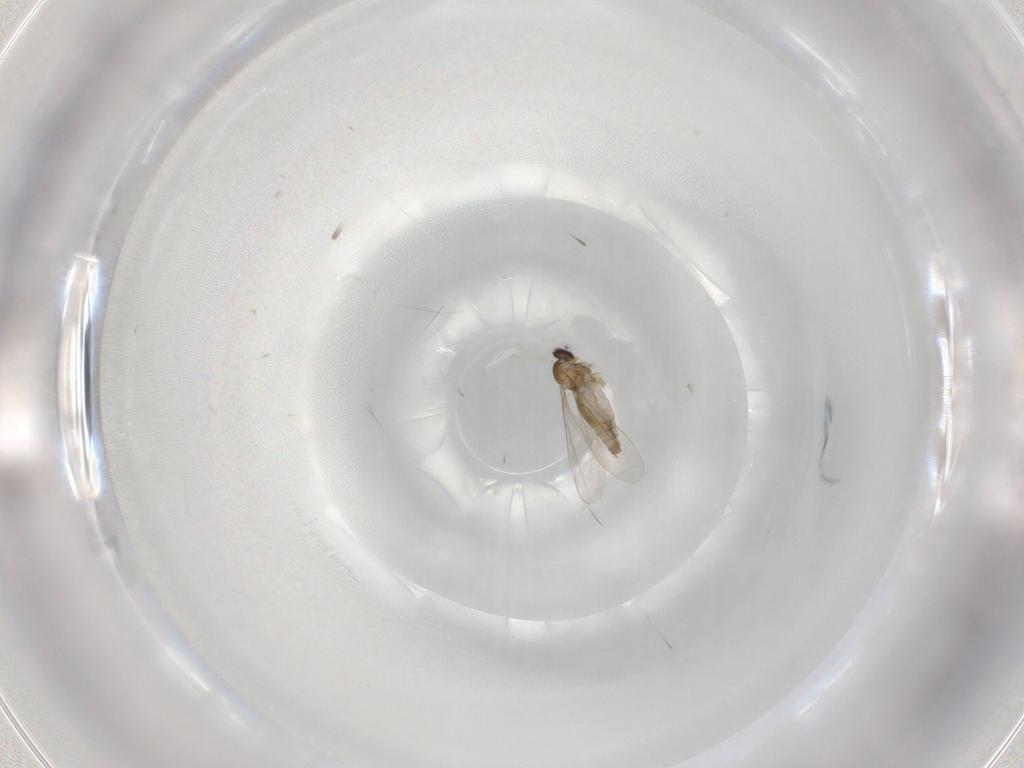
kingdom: Animalia
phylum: Arthropoda
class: Insecta
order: Diptera
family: Cecidomyiidae
